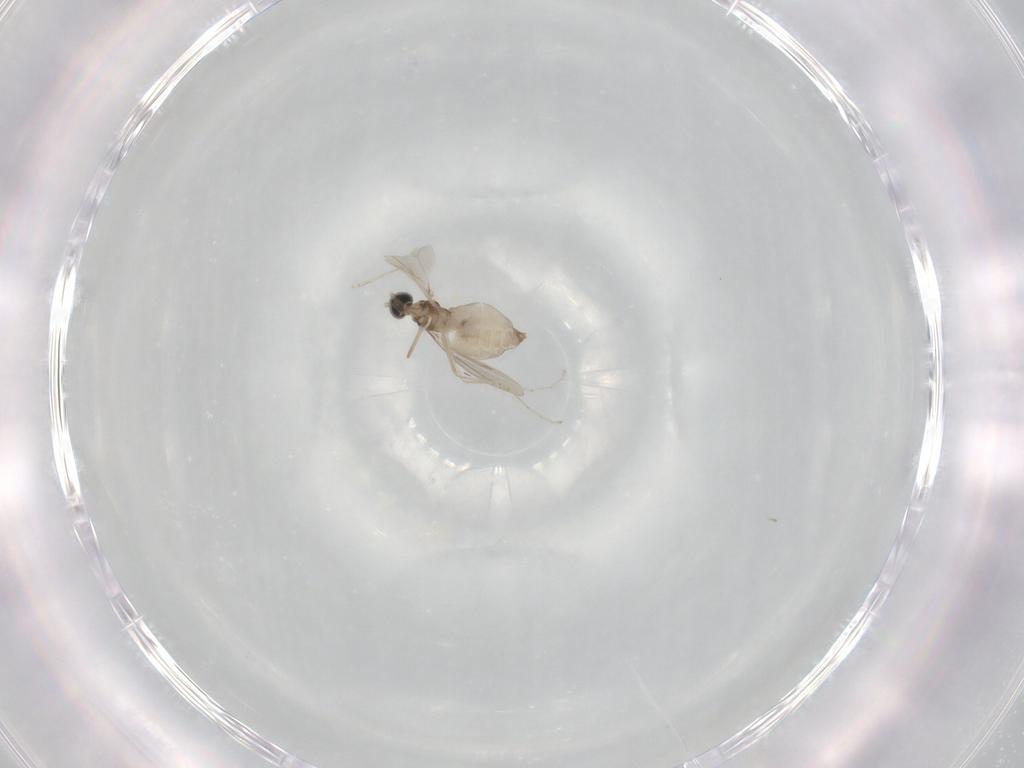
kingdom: Animalia
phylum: Arthropoda
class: Insecta
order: Diptera
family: Cecidomyiidae
